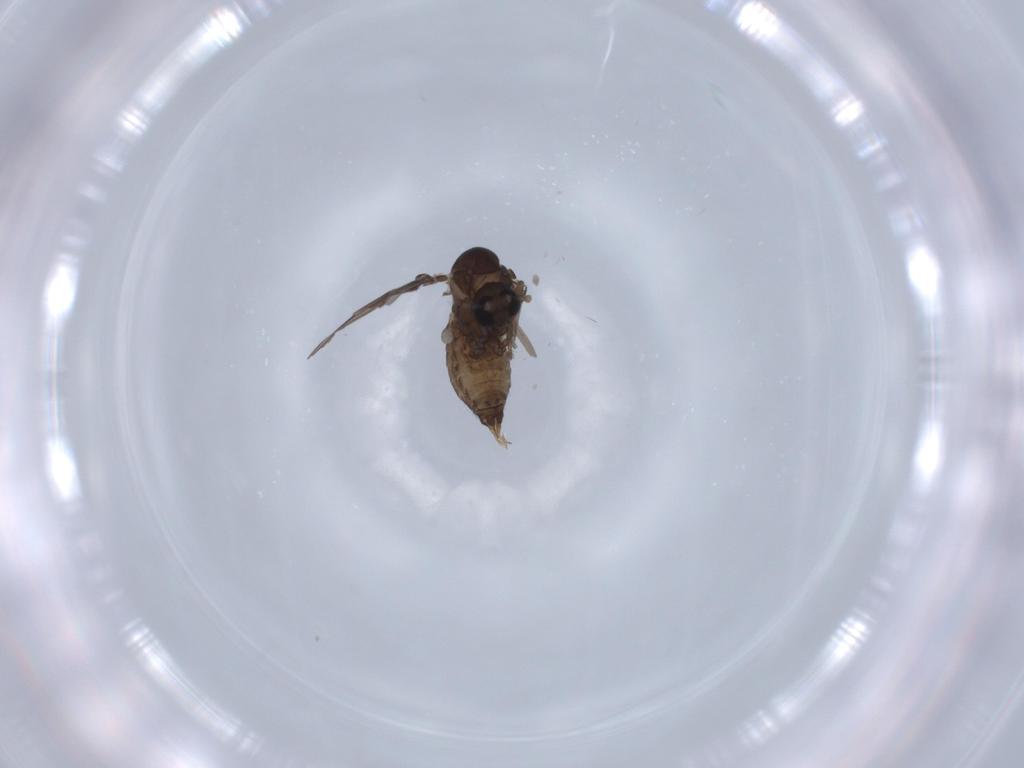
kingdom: Animalia
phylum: Arthropoda
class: Insecta
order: Diptera
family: Psychodidae
